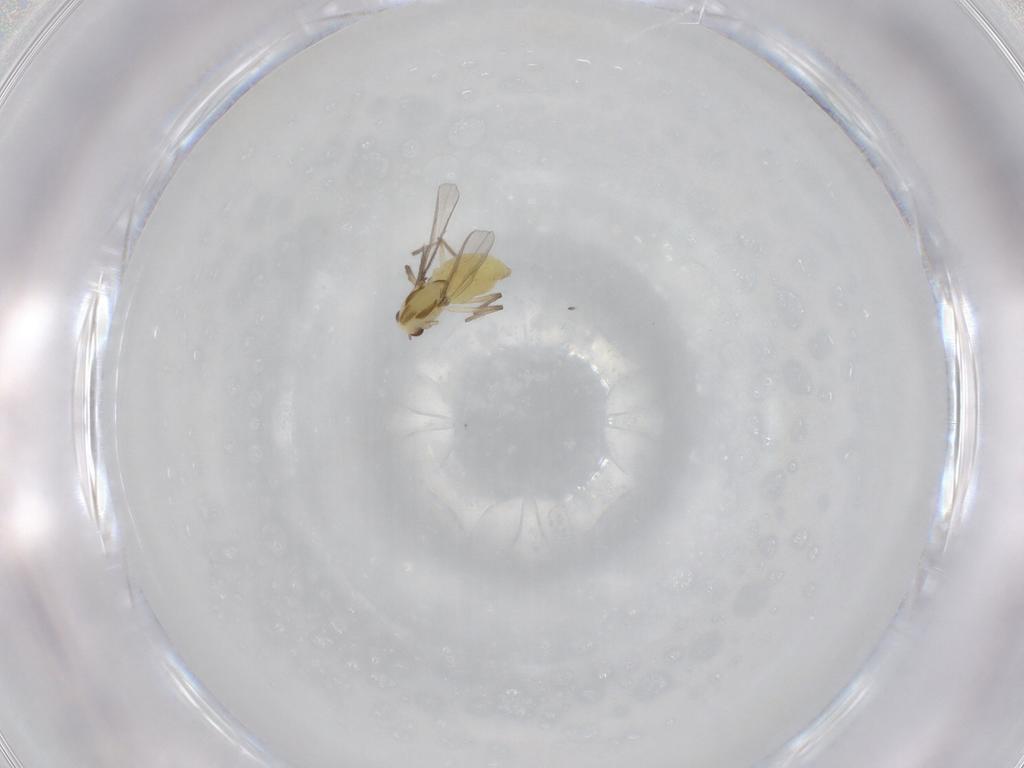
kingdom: Animalia
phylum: Arthropoda
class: Insecta
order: Diptera
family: Chironomidae
